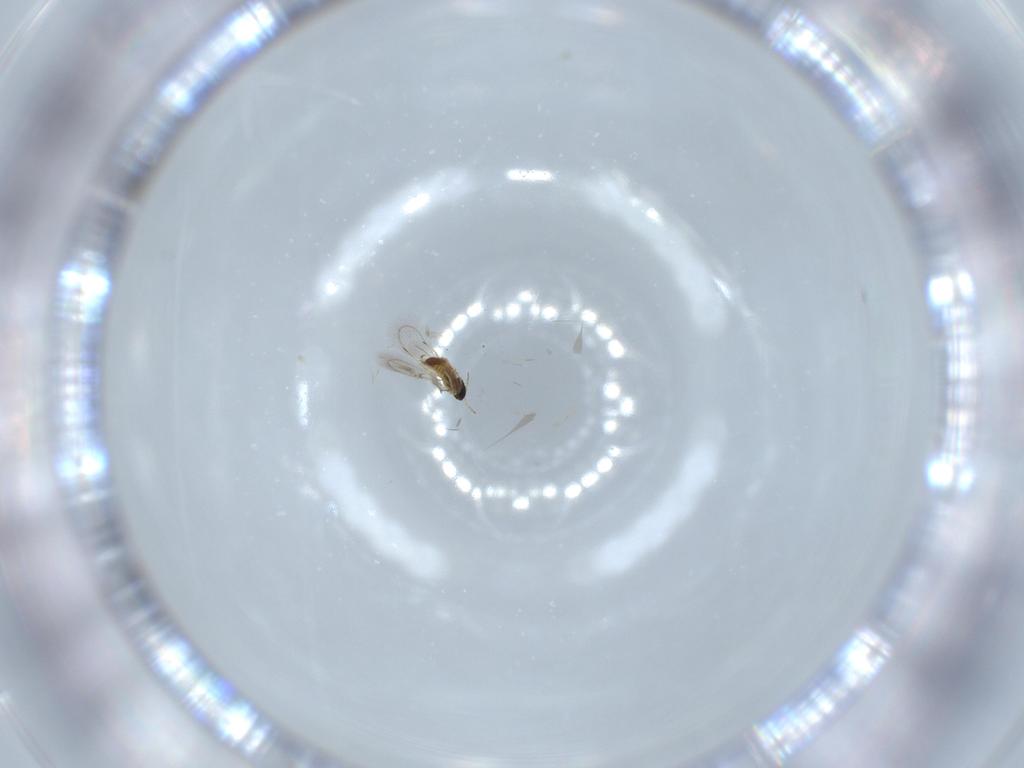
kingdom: Animalia
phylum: Arthropoda
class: Insecta
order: Hymenoptera
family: Trichogrammatidae
